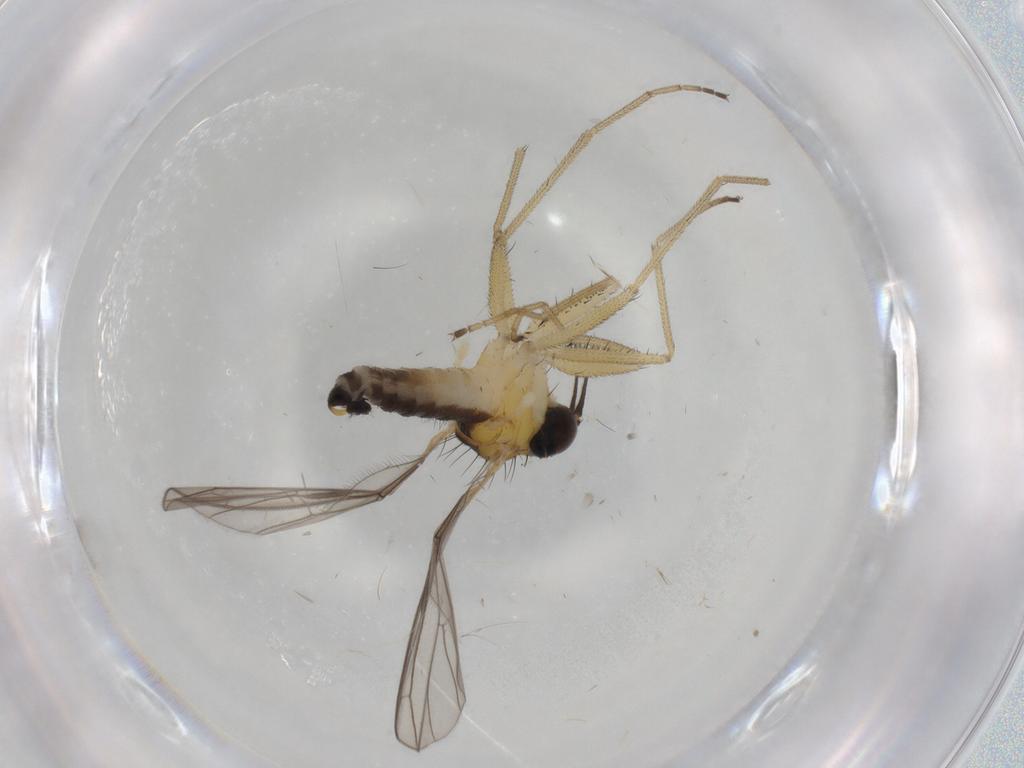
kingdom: Animalia
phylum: Arthropoda
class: Insecta
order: Diptera
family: Empididae
